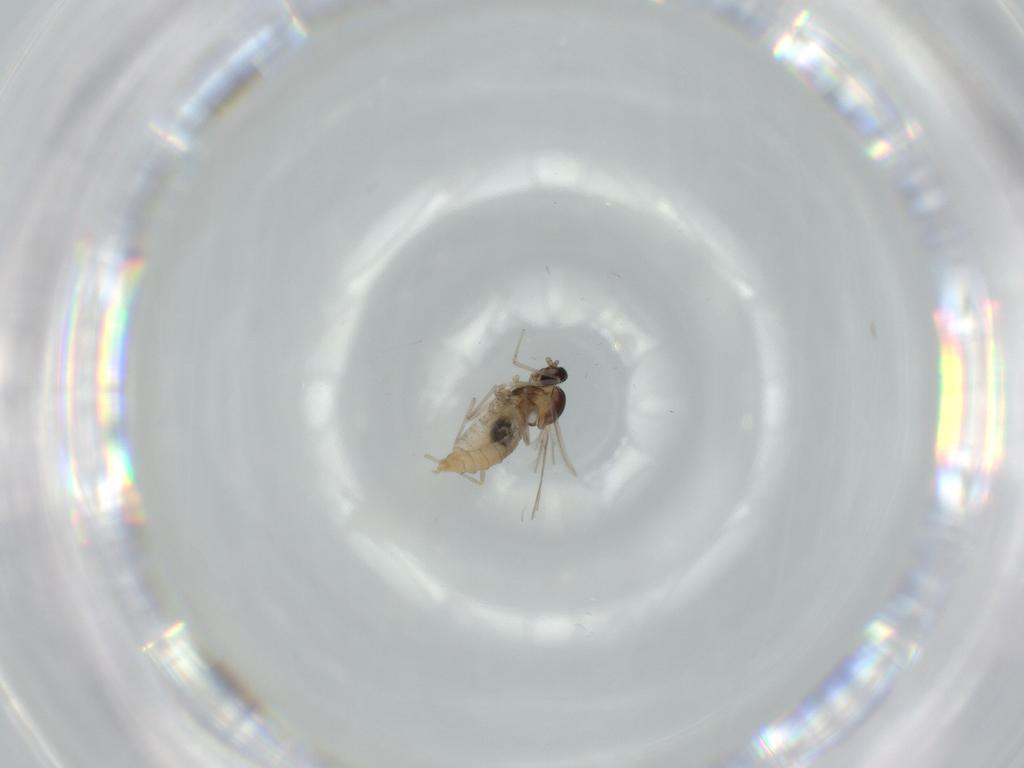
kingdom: Animalia
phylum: Arthropoda
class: Insecta
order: Diptera
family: Cecidomyiidae
